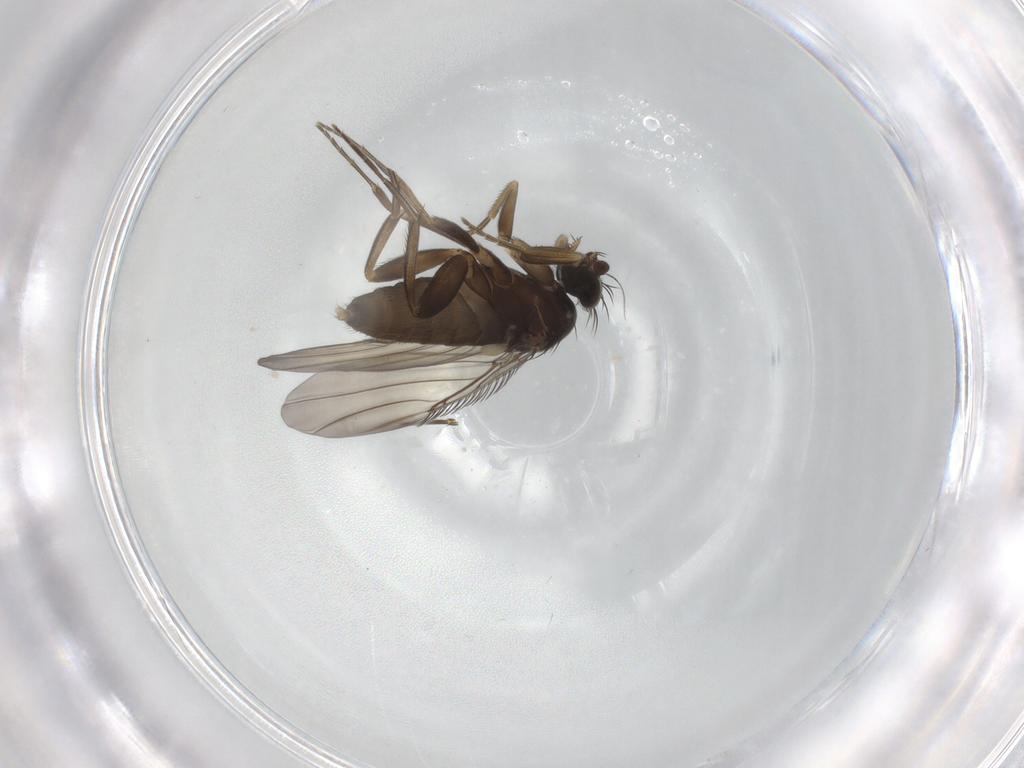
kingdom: Animalia
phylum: Arthropoda
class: Insecta
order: Diptera
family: Phoridae
